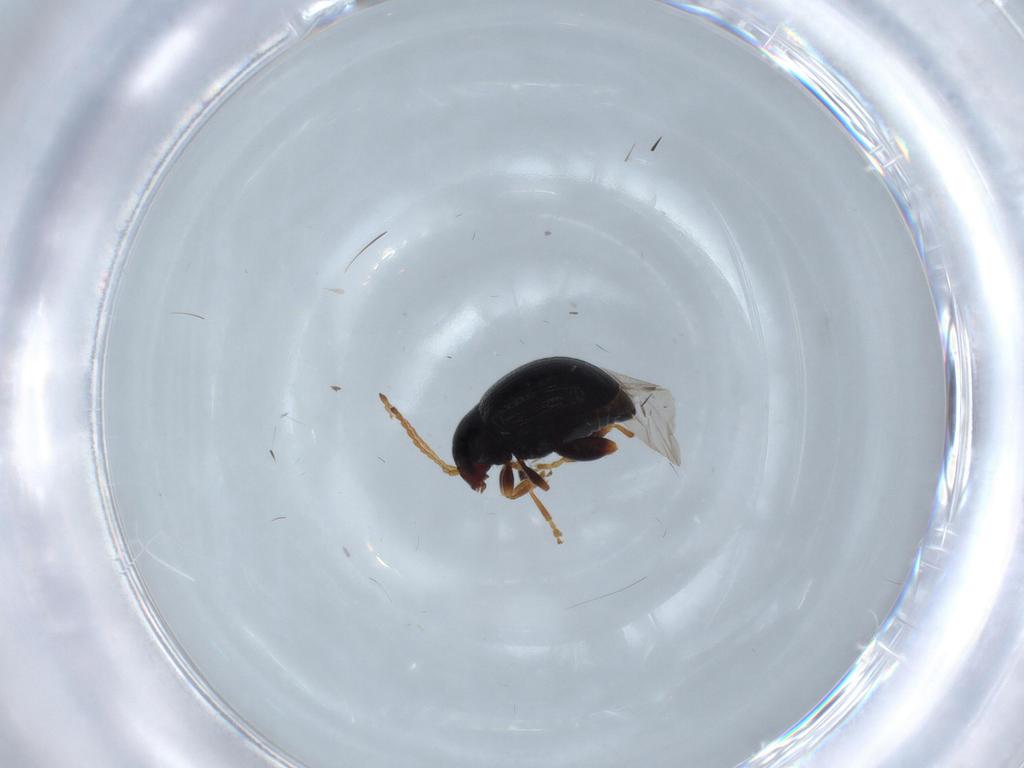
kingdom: Animalia
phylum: Arthropoda
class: Insecta
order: Coleoptera
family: Chrysomelidae
